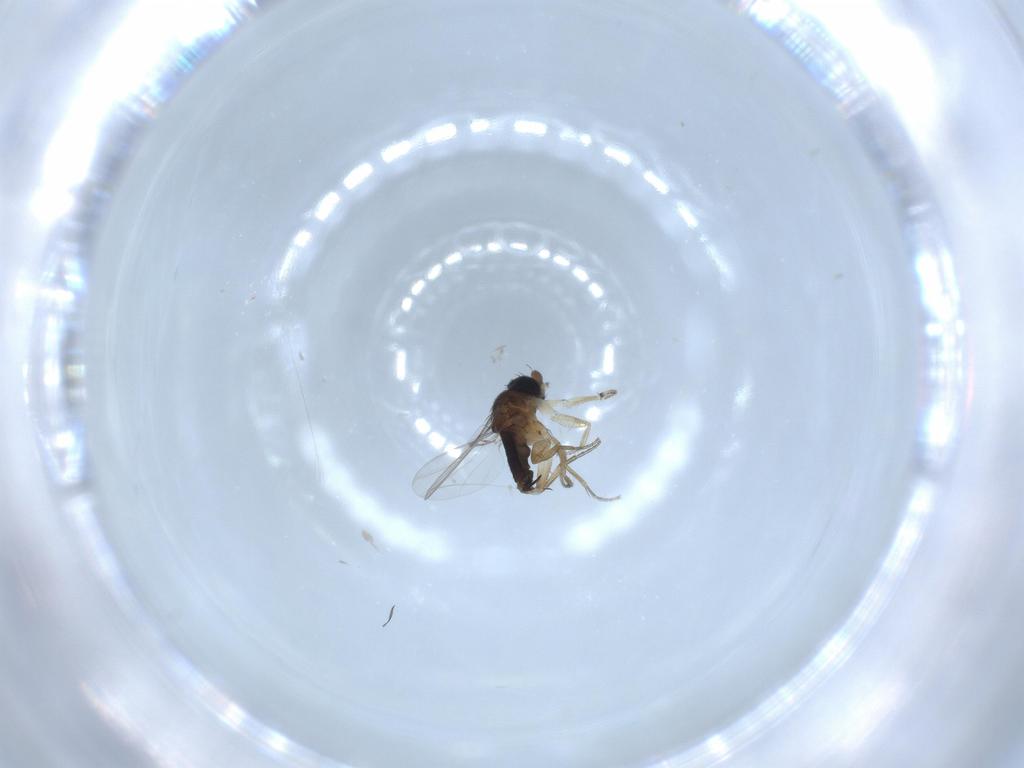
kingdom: Animalia
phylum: Arthropoda
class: Insecta
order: Diptera
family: Phoridae
